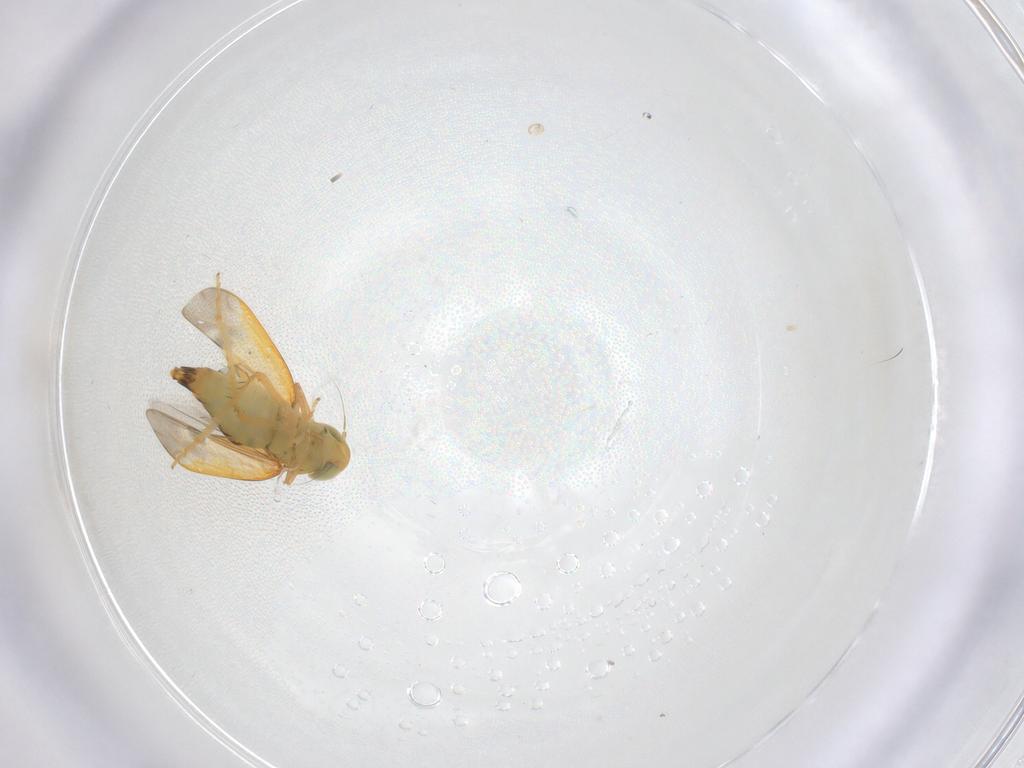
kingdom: Animalia
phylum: Arthropoda
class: Insecta
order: Hemiptera
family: Cicadellidae
